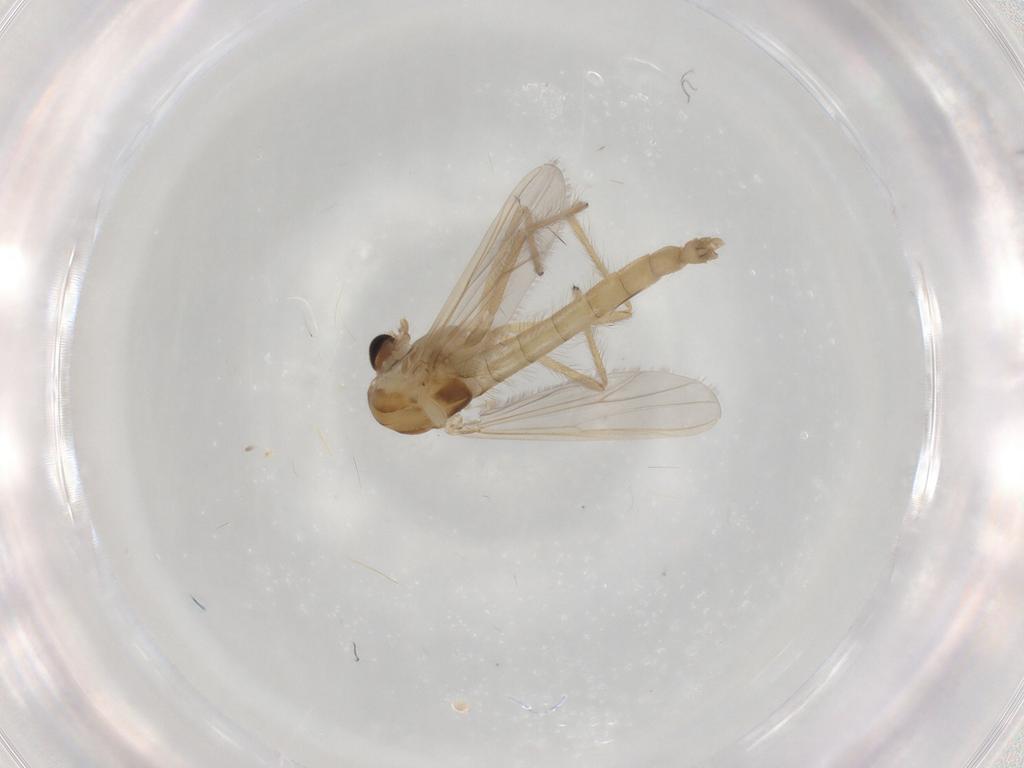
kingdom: Animalia
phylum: Arthropoda
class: Insecta
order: Diptera
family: Chironomidae
